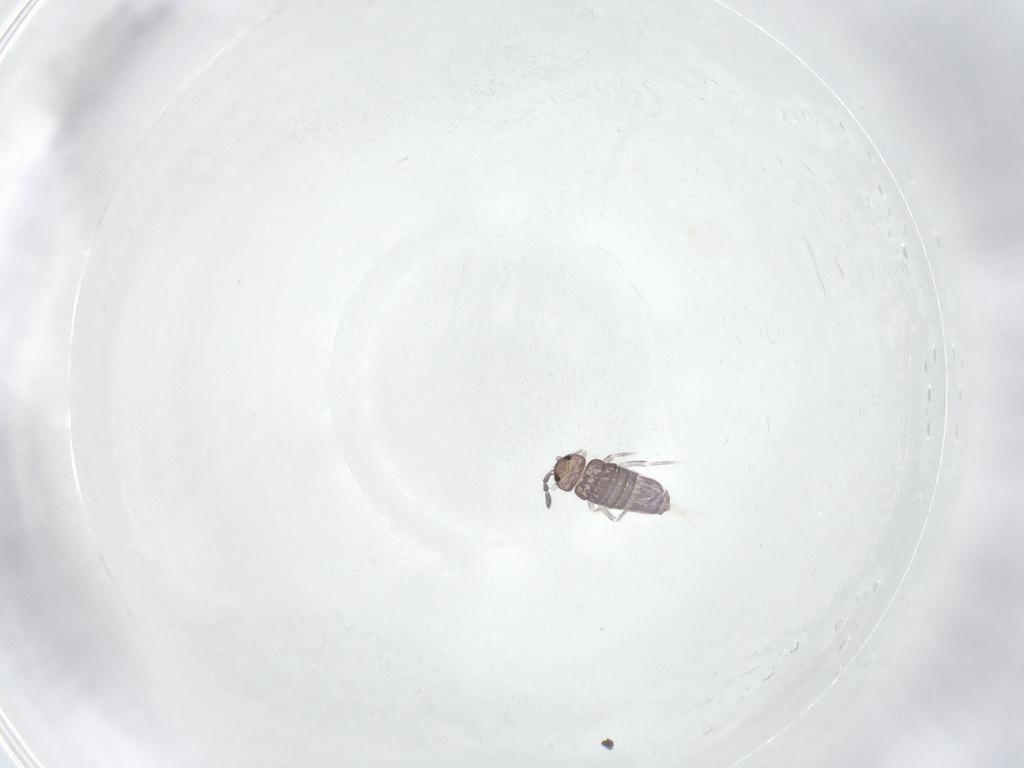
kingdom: Animalia
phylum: Arthropoda
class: Collembola
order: Entomobryomorpha
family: Entomobryidae
